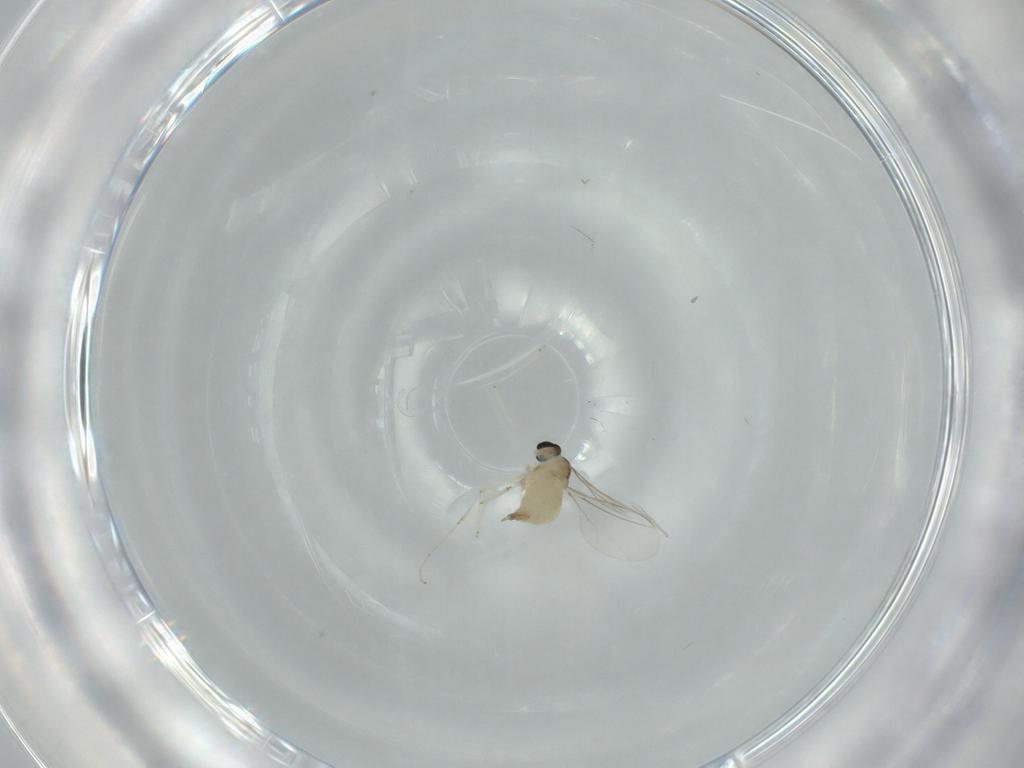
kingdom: Animalia
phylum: Arthropoda
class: Insecta
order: Diptera
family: Cecidomyiidae
